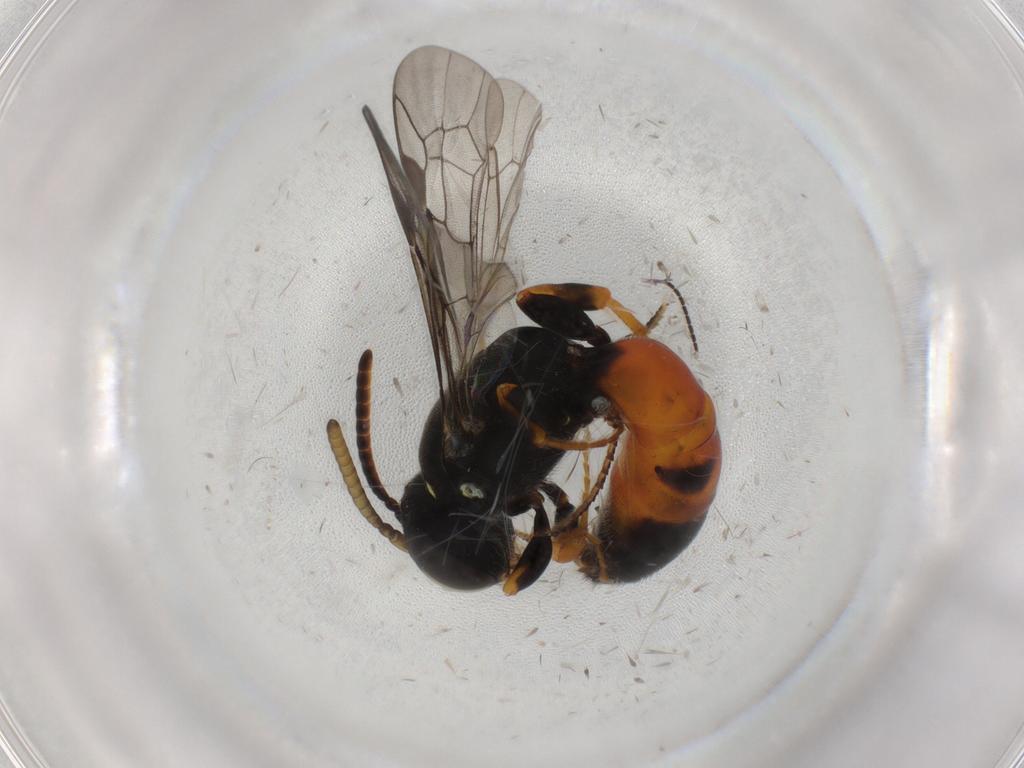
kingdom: Animalia
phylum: Arthropoda
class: Insecta
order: Hymenoptera
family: Colletidae
